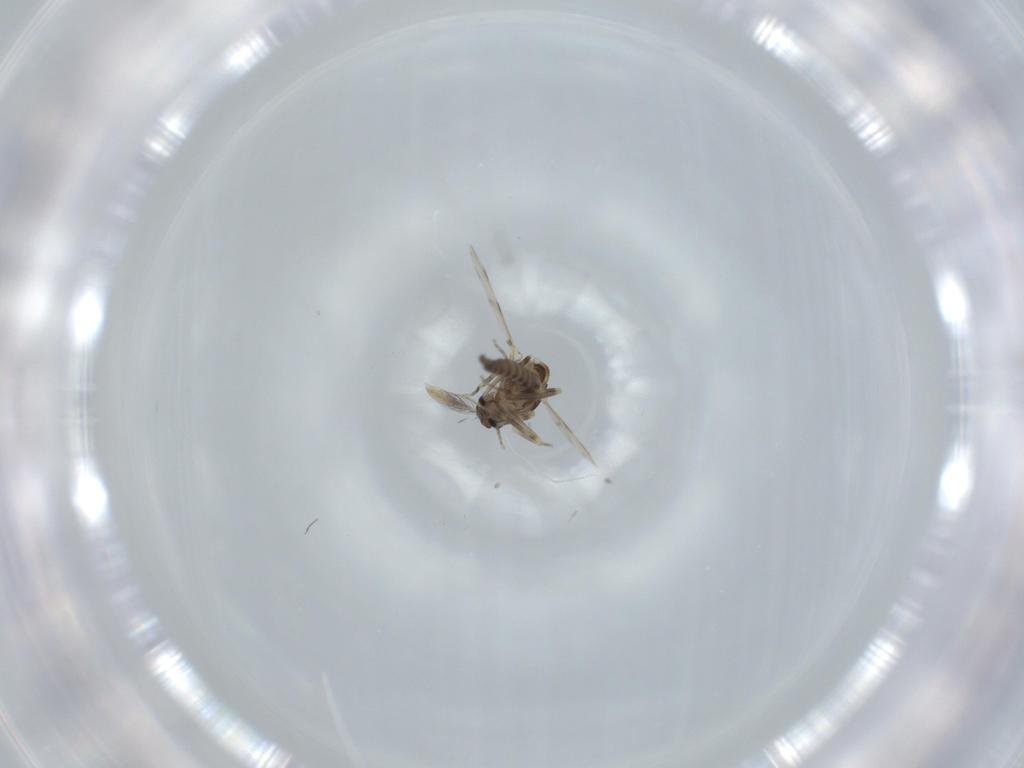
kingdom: Animalia
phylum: Arthropoda
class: Insecta
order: Diptera
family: Ceratopogonidae
